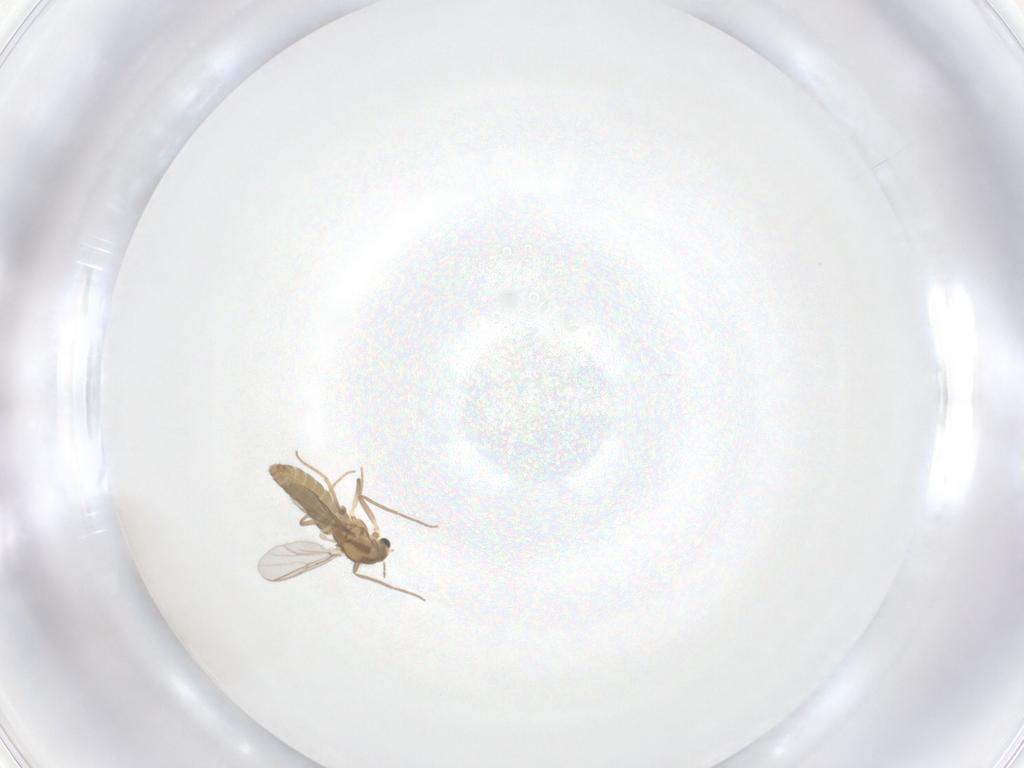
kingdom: Animalia
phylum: Arthropoda
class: Insecta
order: Diptera
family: Chironomidae
